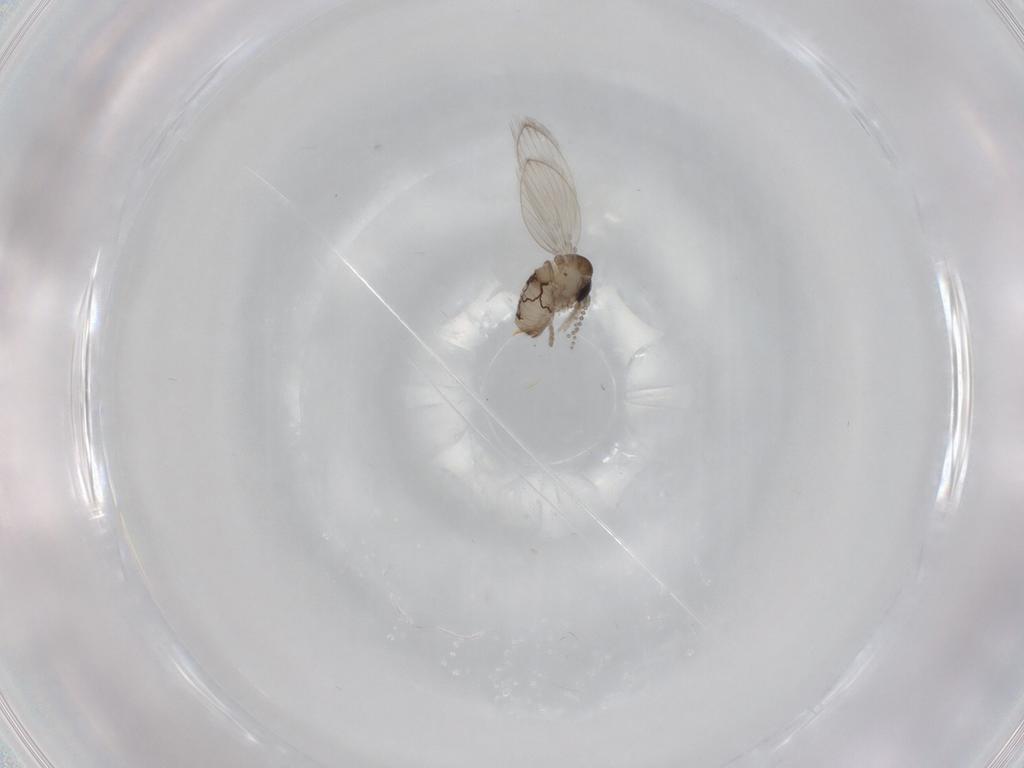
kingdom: Animalia
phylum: Arthropoda
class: Insecta
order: Diptera
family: Psychodidae
